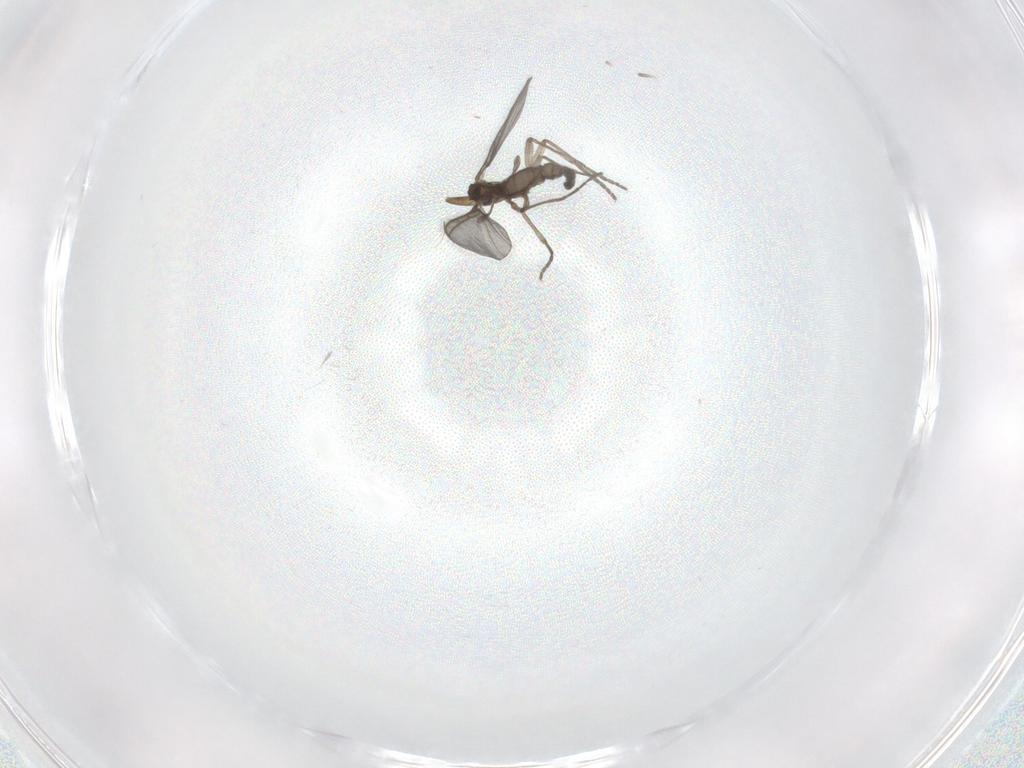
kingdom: Animalia
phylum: Arthropoda
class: Insecta
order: Diptera
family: Sciaridae
